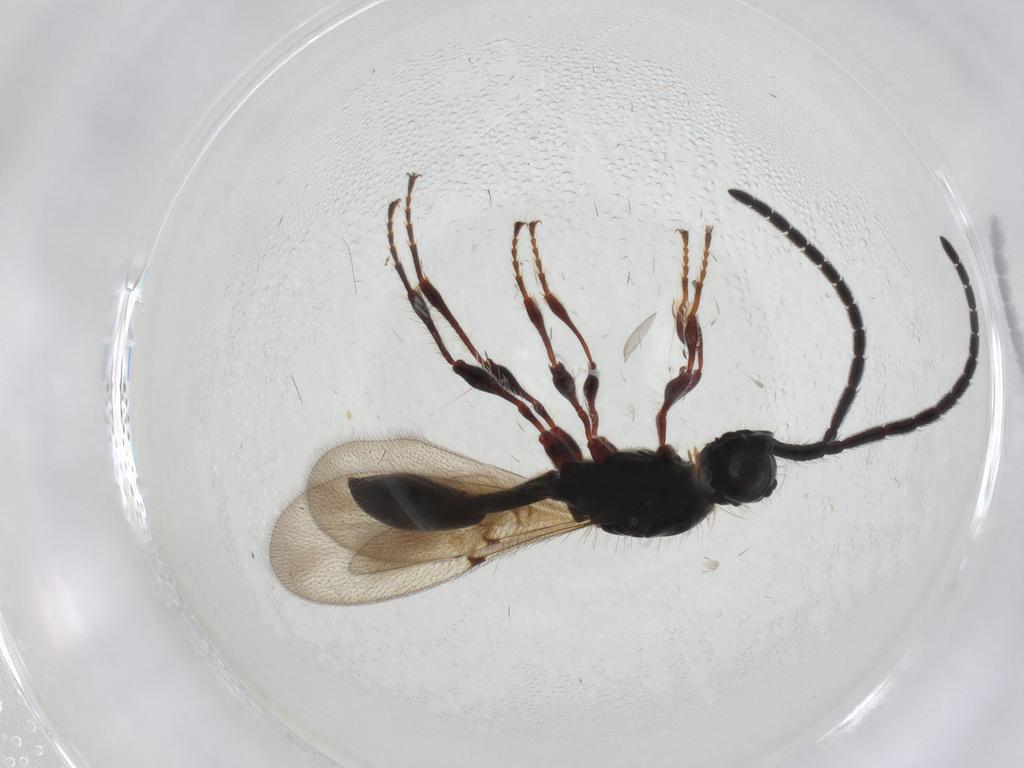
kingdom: Animalia
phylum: Arthropoda
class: Insecta
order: Hymenoptera
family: Diapriidae
